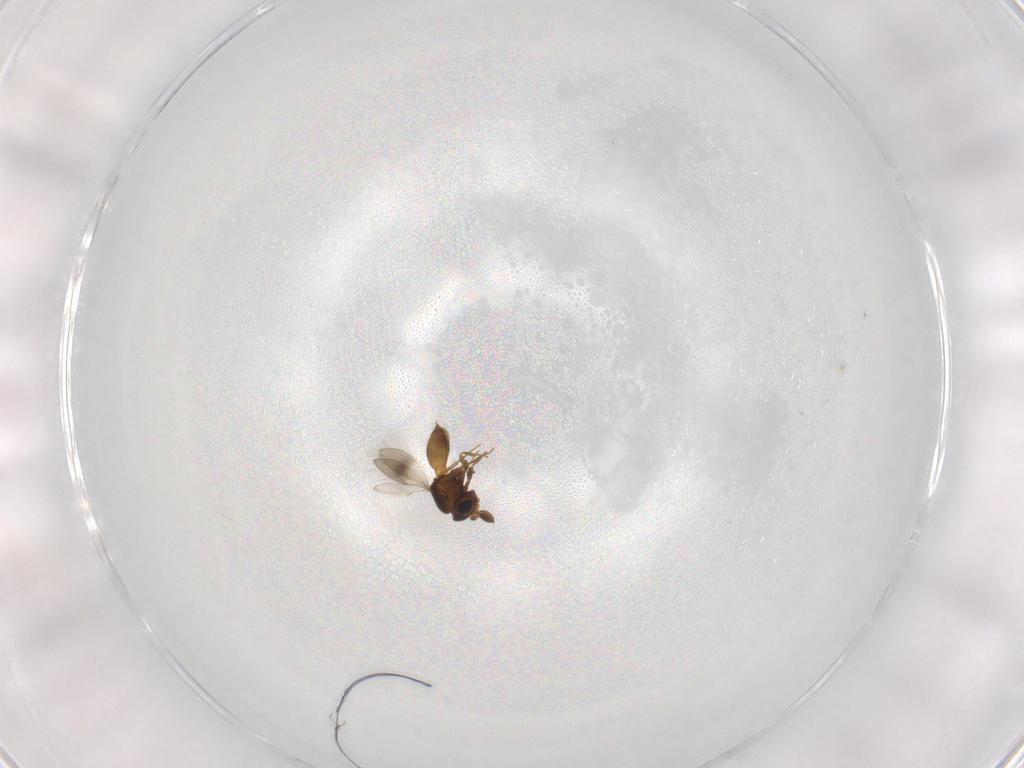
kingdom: Animalia
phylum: Arthropoda
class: Insecta
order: Hymenoptera
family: Scelionidae
